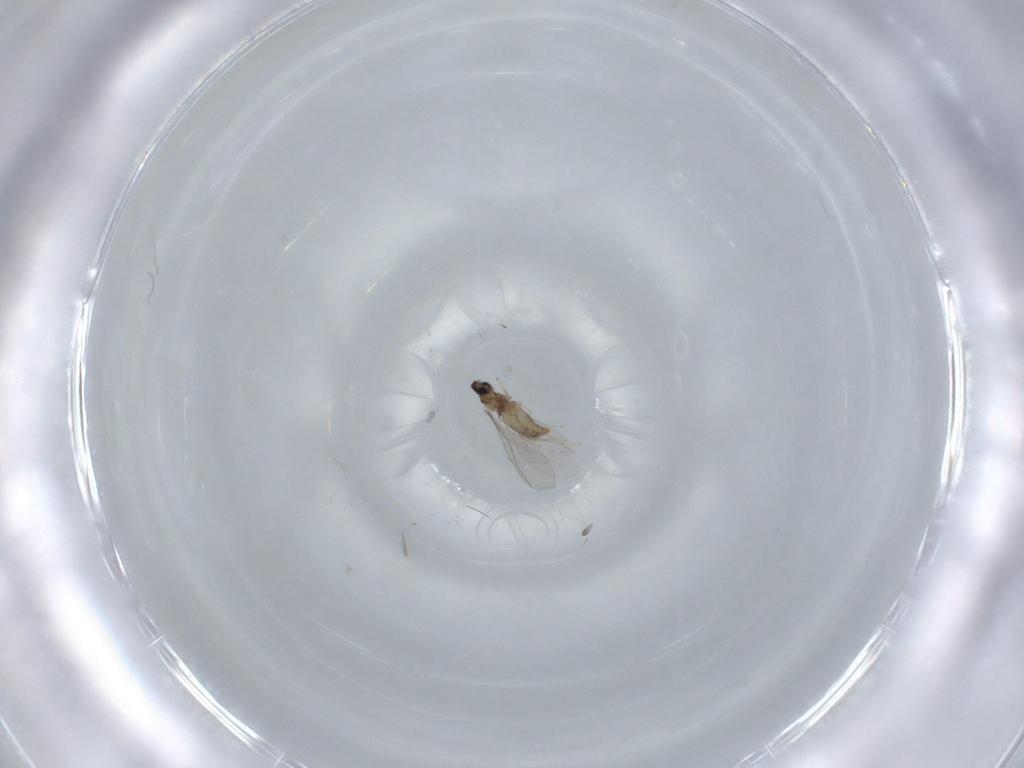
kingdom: Animalia
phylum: Arthropoda
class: Insecta
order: Diptera
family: Cecidomyiidae
